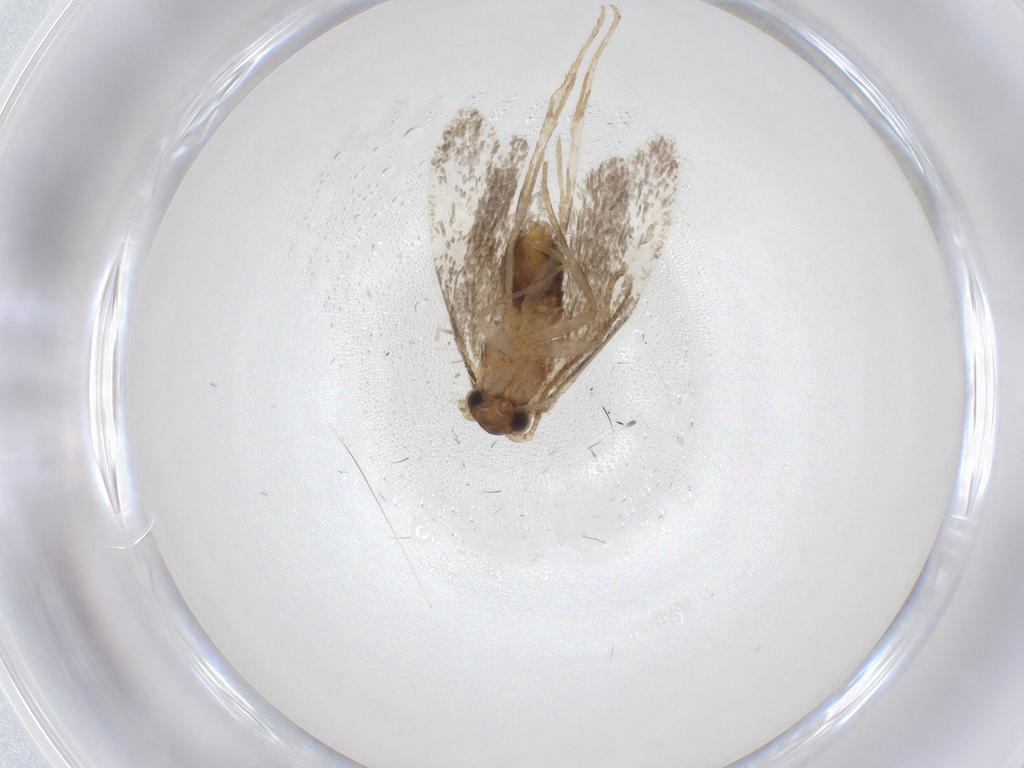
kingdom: Animalia
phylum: Arthropoda
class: Insecta
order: Lepidoptera
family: Dryadaulidae
